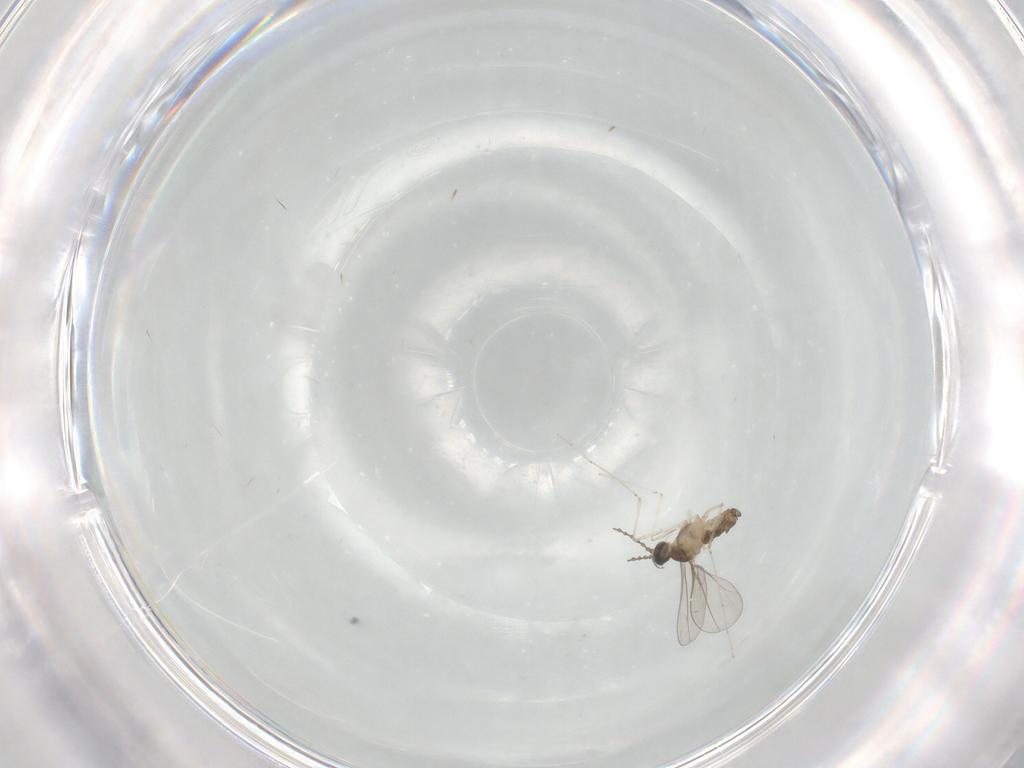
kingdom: Animalia
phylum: Arthropoda
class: Insecta
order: Diptera
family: Cecidomyiidae
